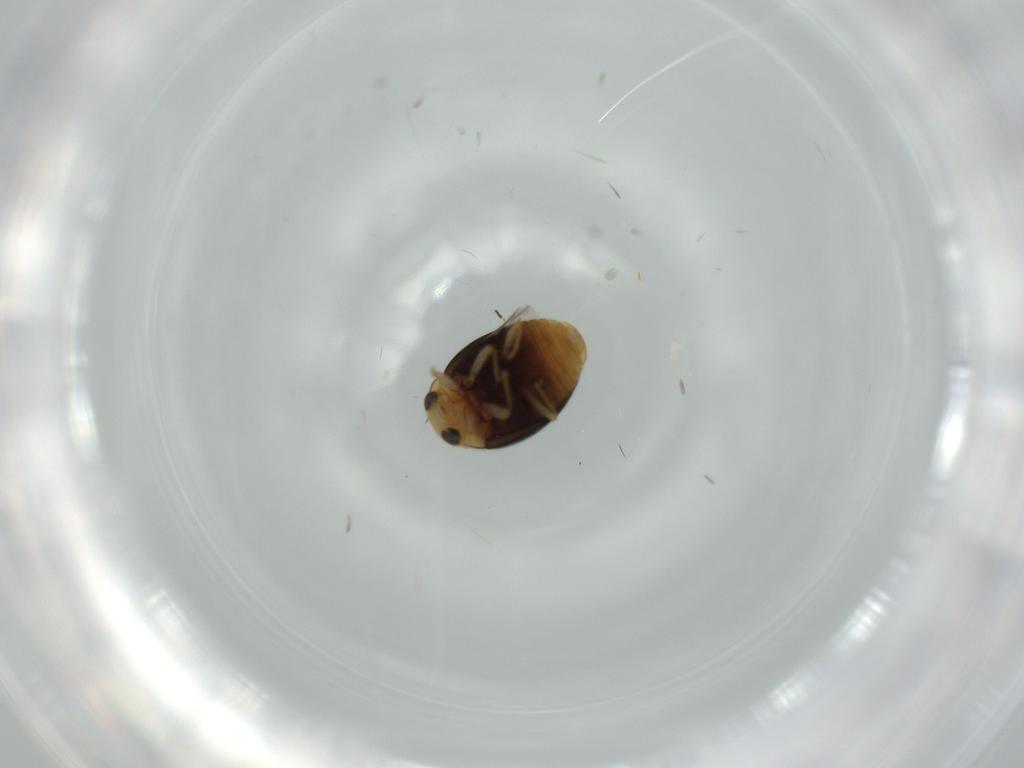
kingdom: Animalia
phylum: Arthropoda
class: Insecta
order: Coleoptera
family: Coccinellidae
